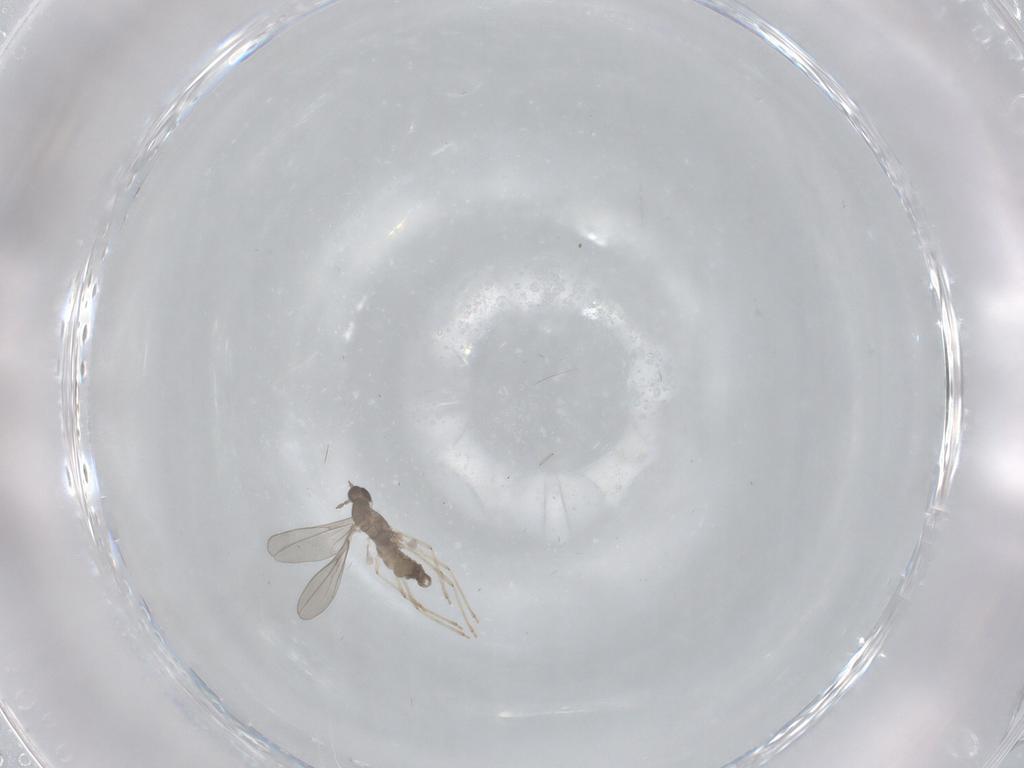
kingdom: Animalia
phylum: Arthropoda
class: Insecta
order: Diptera
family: Cecidomyiidae
